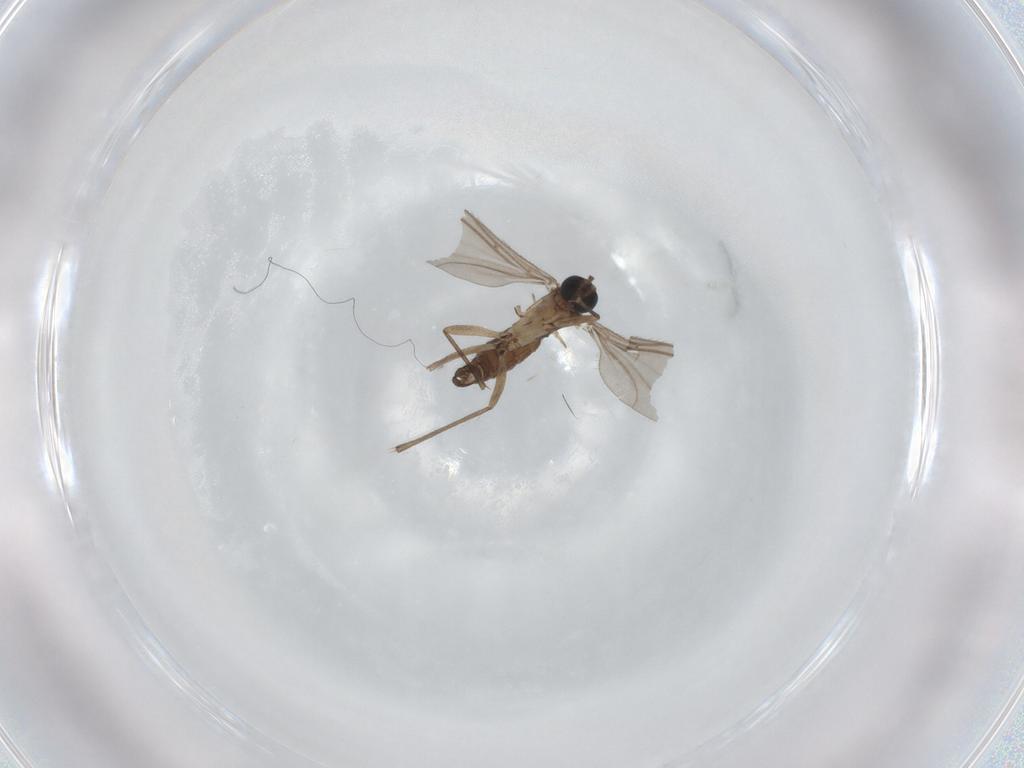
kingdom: Animalia
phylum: Arthropoda
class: Insecta
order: Diptera
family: Sciaridae
